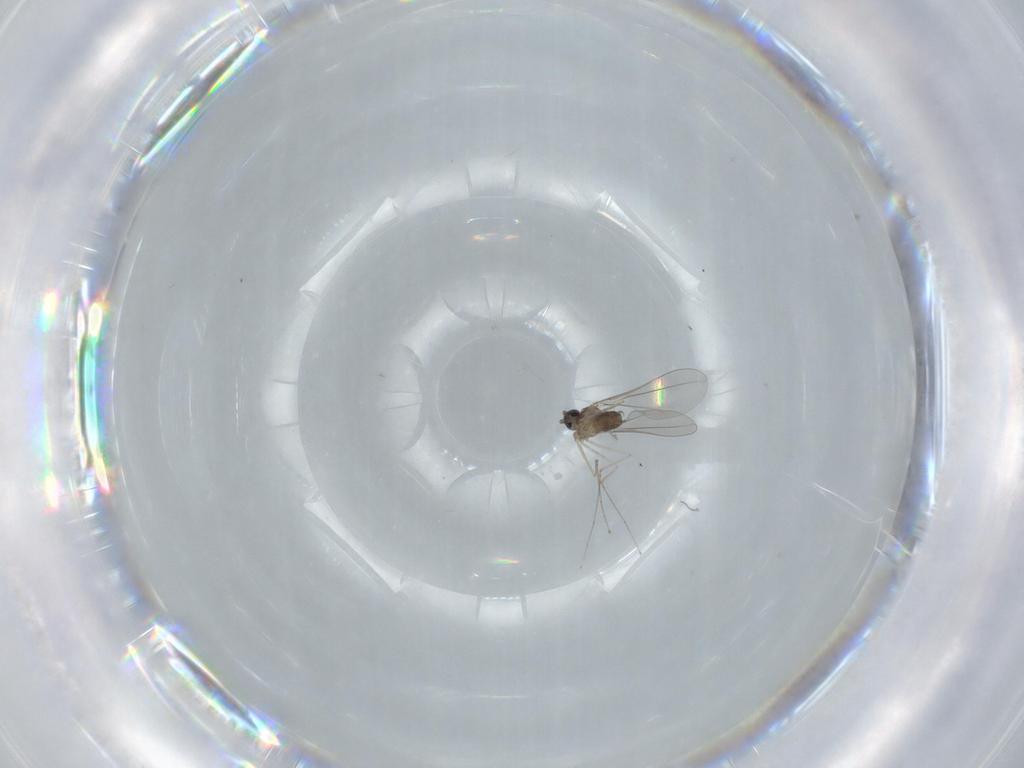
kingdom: Animalia
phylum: Arthropoda
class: Insecta
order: Diptera
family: Cecidomyiidae
